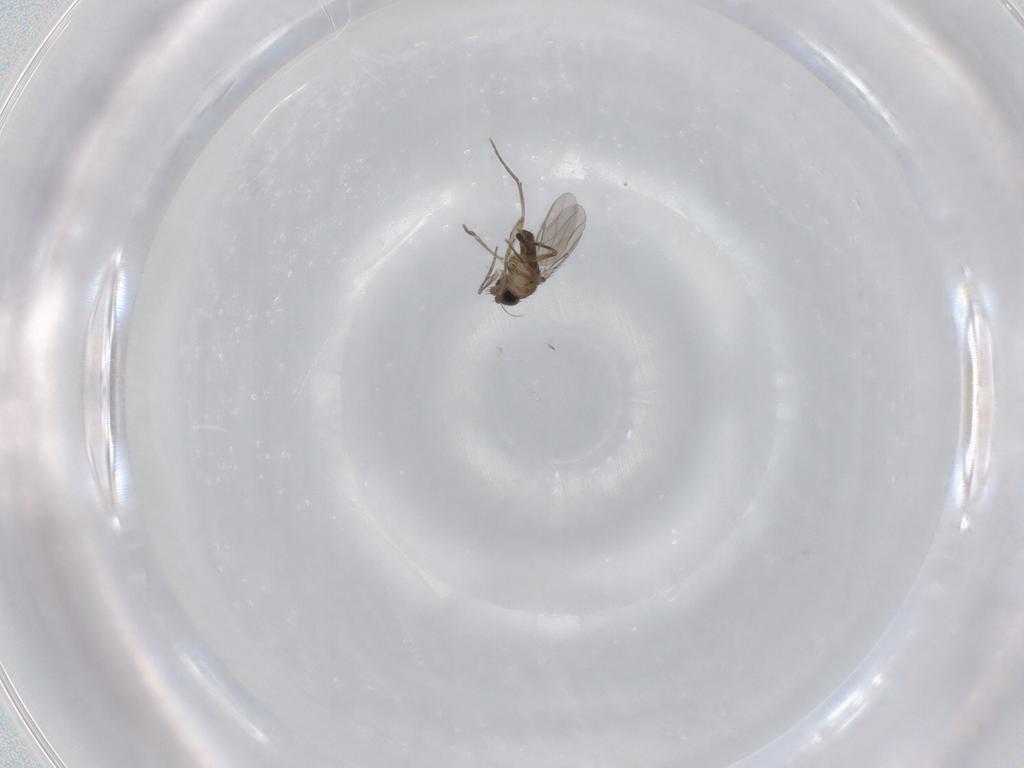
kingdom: Animalia
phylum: Arthropoda
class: Insecta
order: Diptera
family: Phoridae
